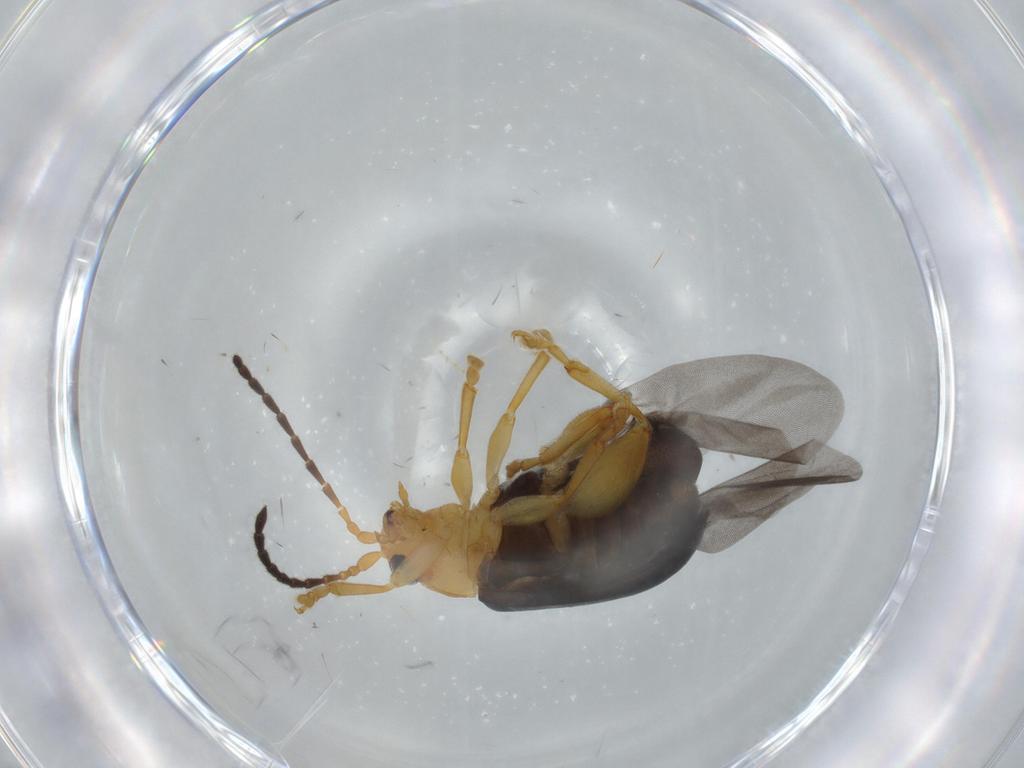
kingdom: Animalia
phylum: Arthropoda
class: Insecta
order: Coleoptera
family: Chrysomelidae
